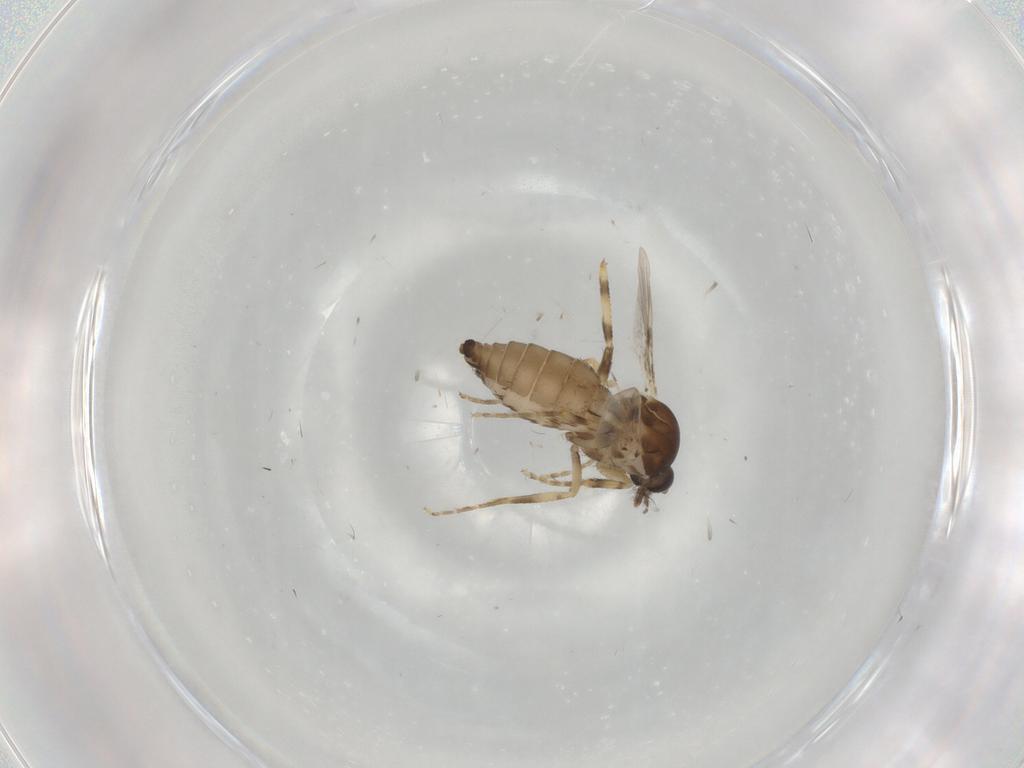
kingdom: Animalia
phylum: Arthropoda
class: Insecta
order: Diptera
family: Ceratopogonidae
